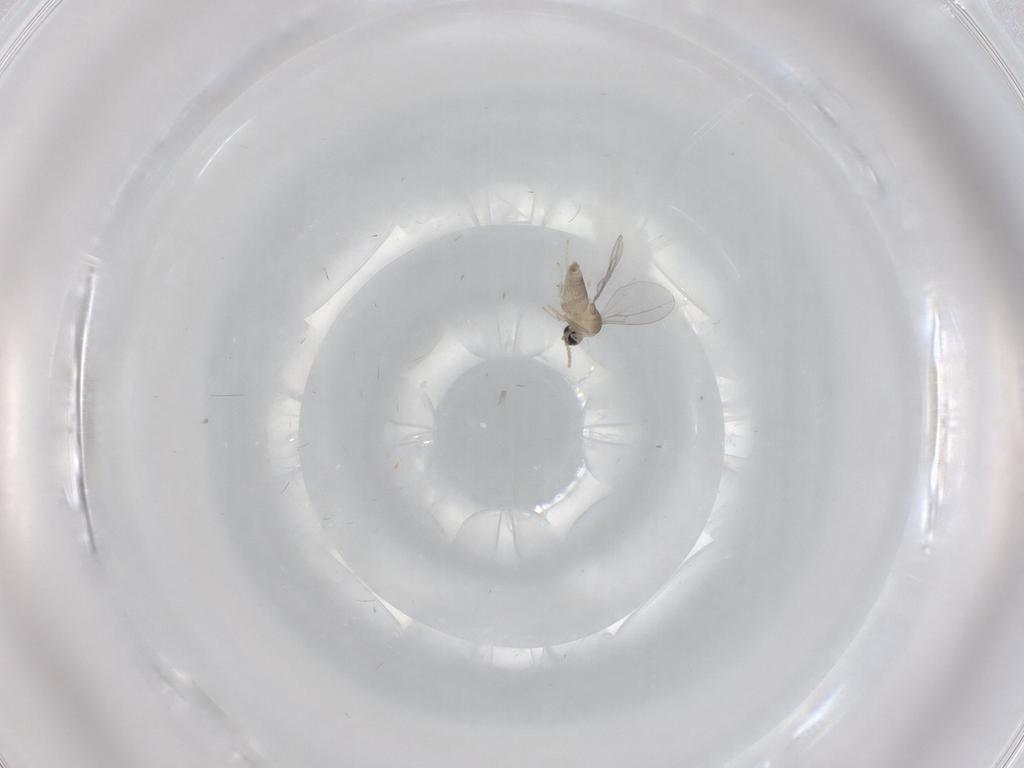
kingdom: Animalia
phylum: Arthropoda
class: Insecta
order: Diptera
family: Cecidomyiidae
